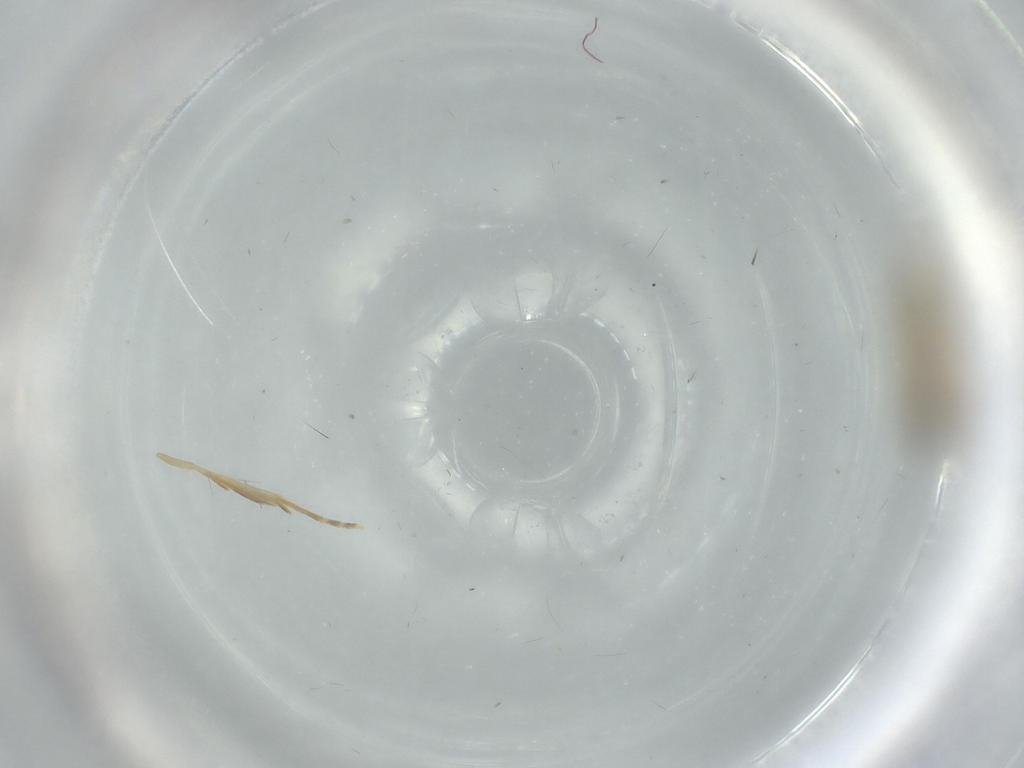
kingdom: Animalia
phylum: Arthropoda
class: Insecta
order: Lepidoptera
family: Bucculatricidae
